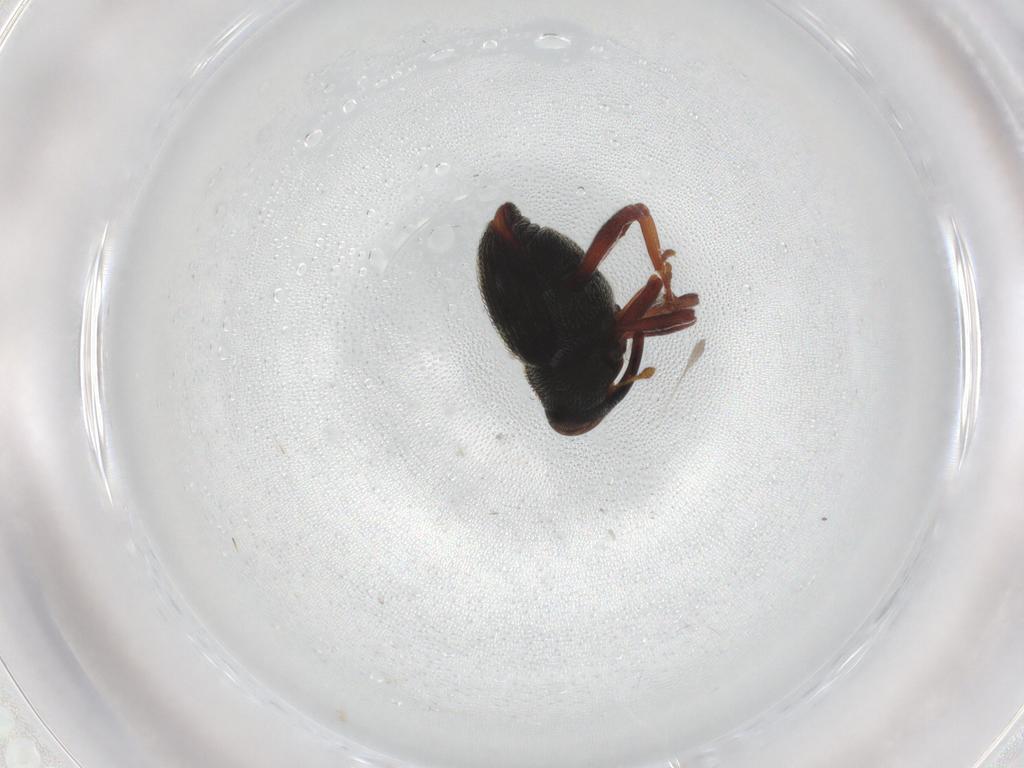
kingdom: Animalia
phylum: Arthropoda
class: Insecta
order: Coleoptera
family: Curculionidae
